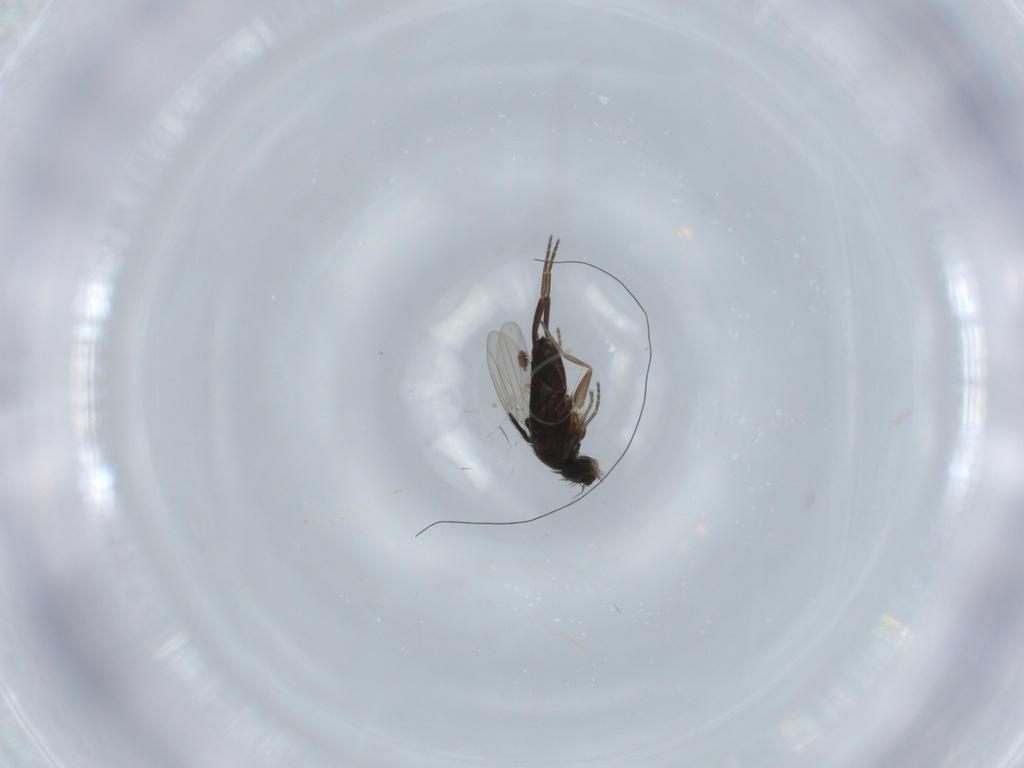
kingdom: Animalia
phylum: Arthropoda
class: Insecta
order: Diptera
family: Phoridae
